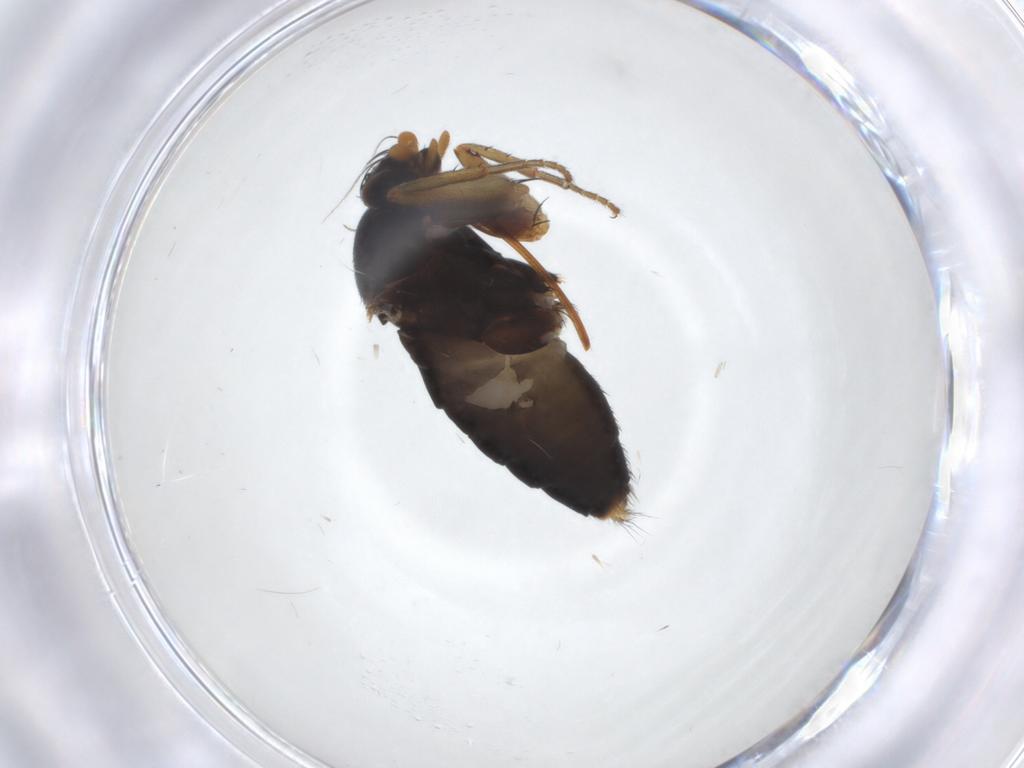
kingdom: Animalia
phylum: Arthropoda
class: Insecta
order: Diptera
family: Phoridae
